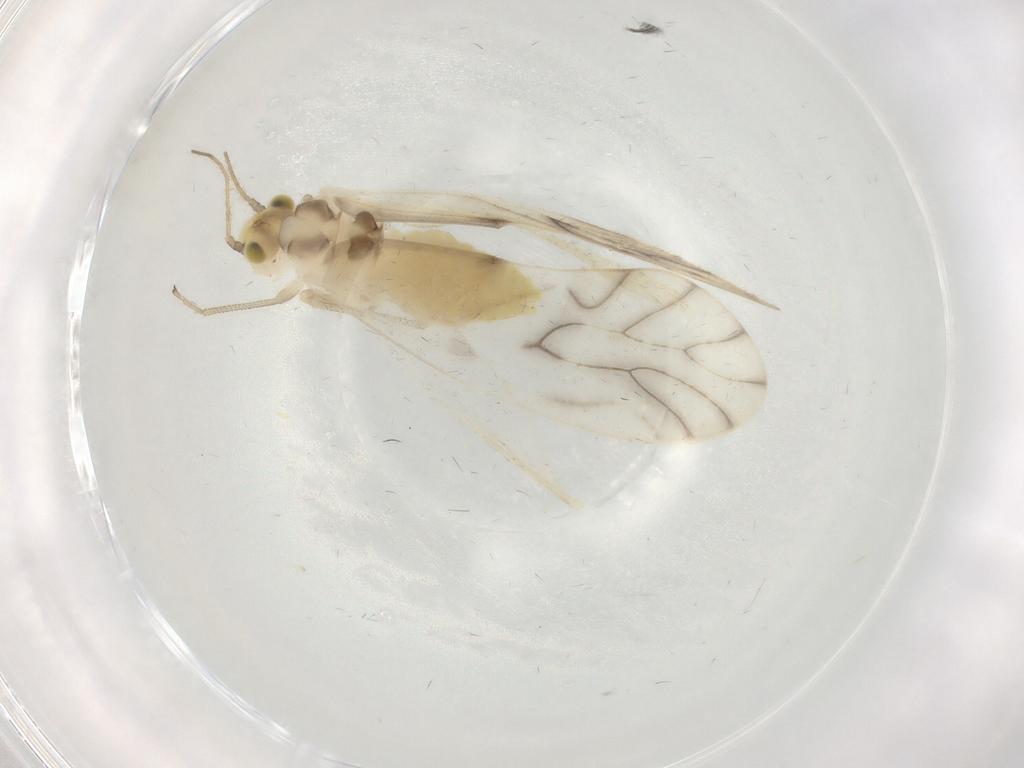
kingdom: Animalia
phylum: Arthropoda
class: Insecta
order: Psocodea
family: Caeciliusidae
